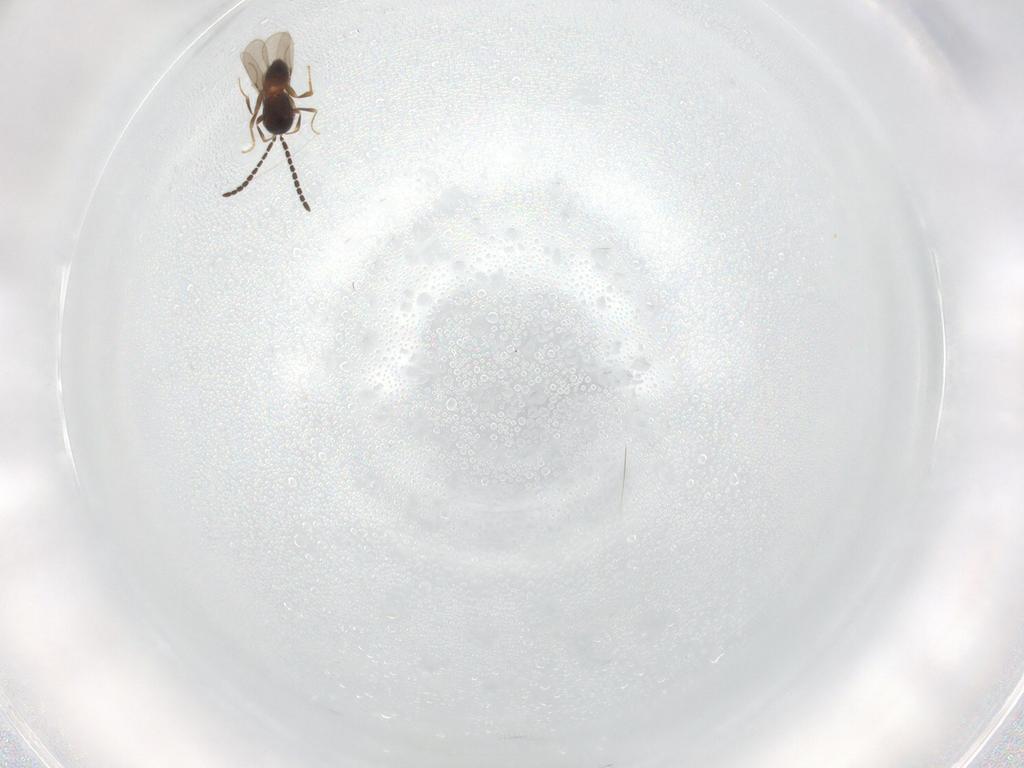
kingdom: Animalia
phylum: Arthropoda
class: Insecta
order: Hymenoptera
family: Ceraphronidae
